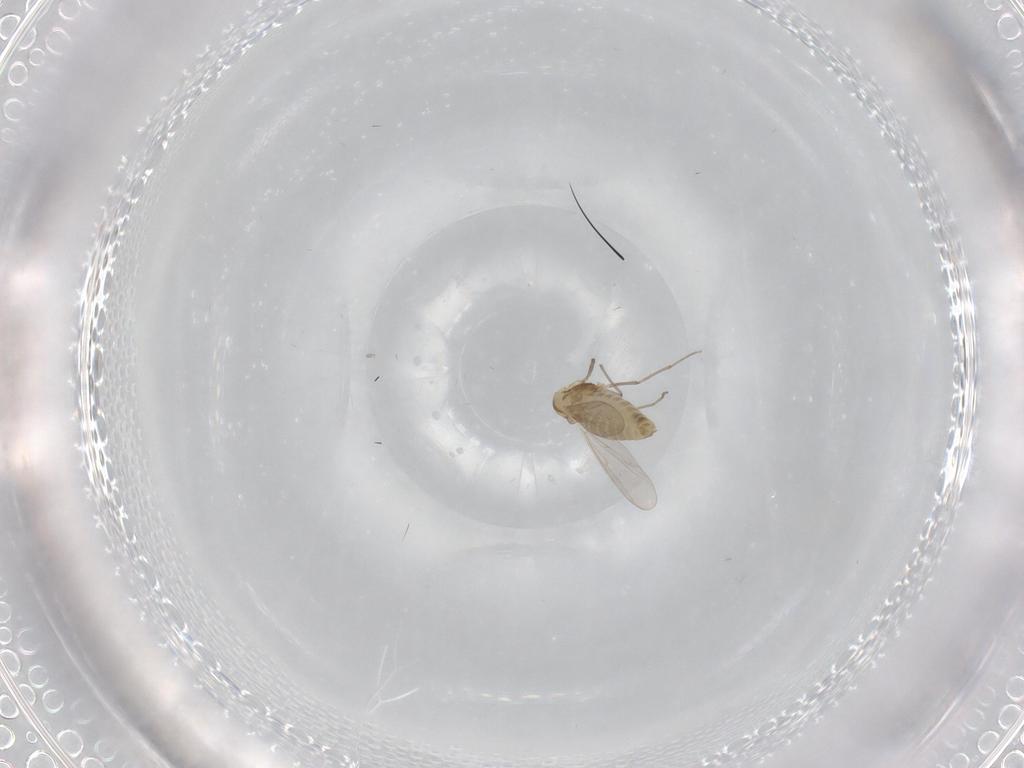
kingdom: Animalia
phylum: Arthropoda
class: Insecta
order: Diptera
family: Chironomidae
